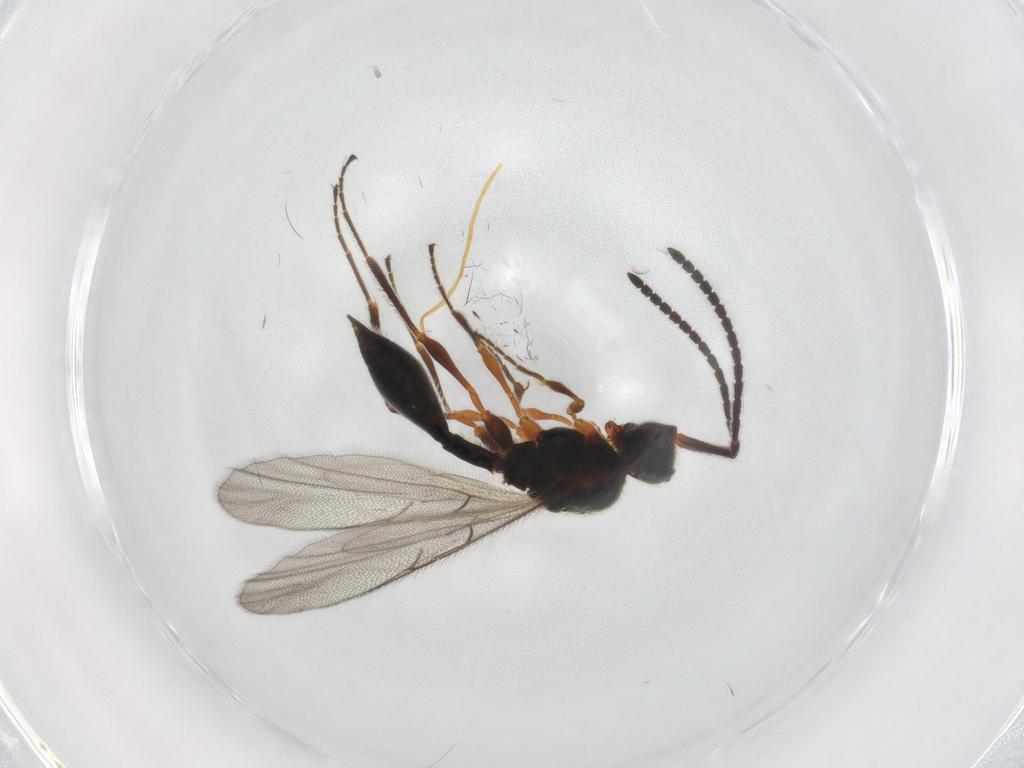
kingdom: Animalia
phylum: Arthropoda
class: Insecta
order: Hymenoptera
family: Diapriidae
